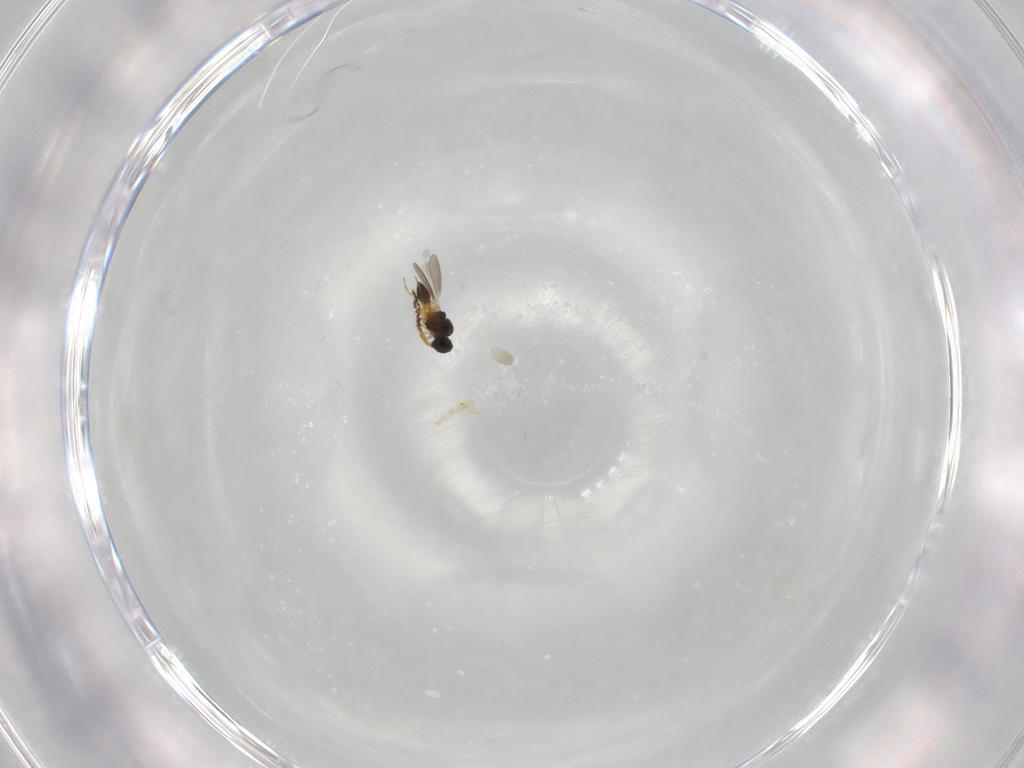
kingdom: Animalia
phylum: Arthropoda
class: Insecta
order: Hymenoptera
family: Platygastridae
